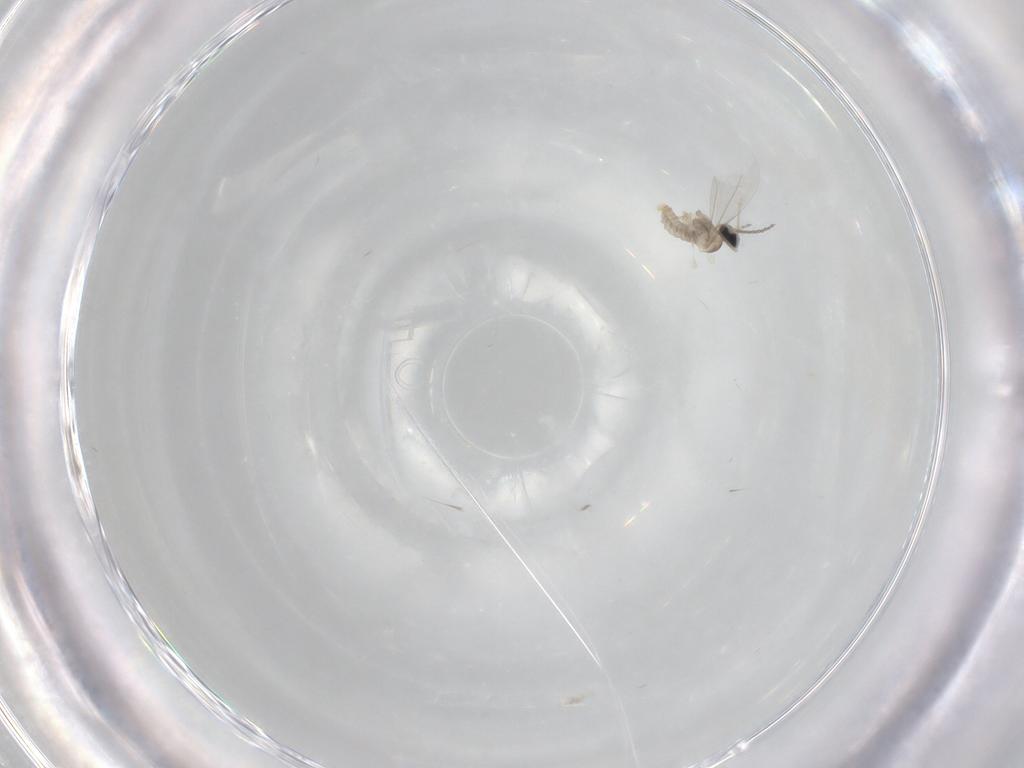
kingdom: Animalia
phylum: Arthropoda
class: Insecta
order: Diptera
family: Cecidomyiidae
